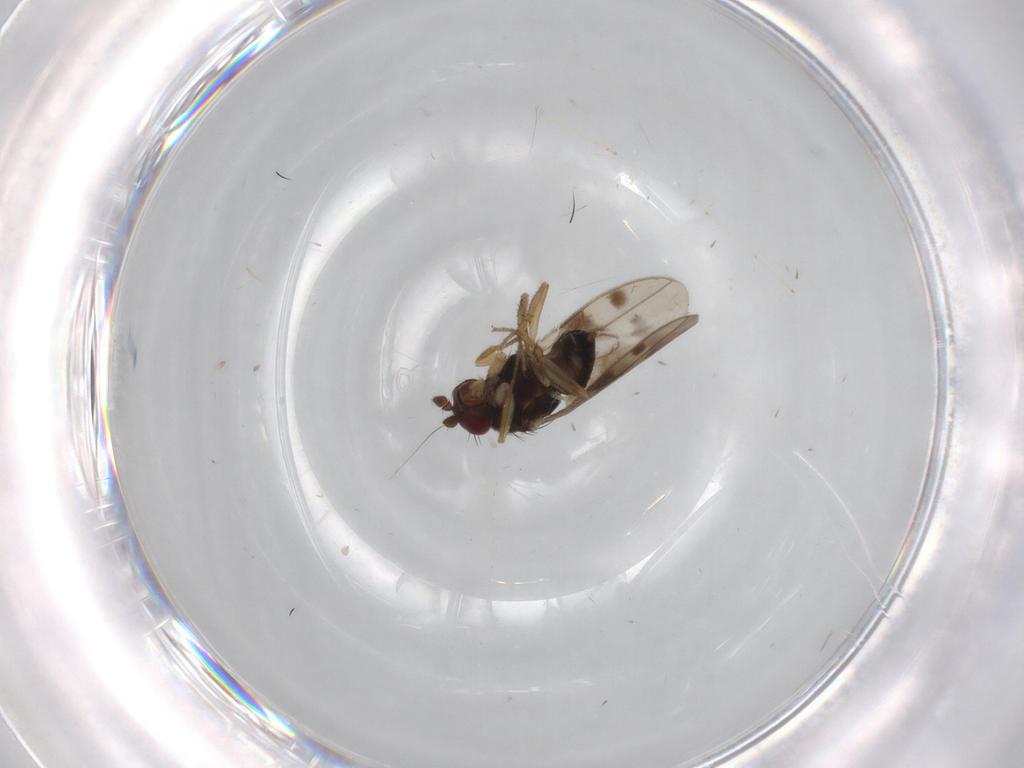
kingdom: Animalia
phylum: Arthropoda
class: Insecta
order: Diptera
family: Sphaeroceridae
